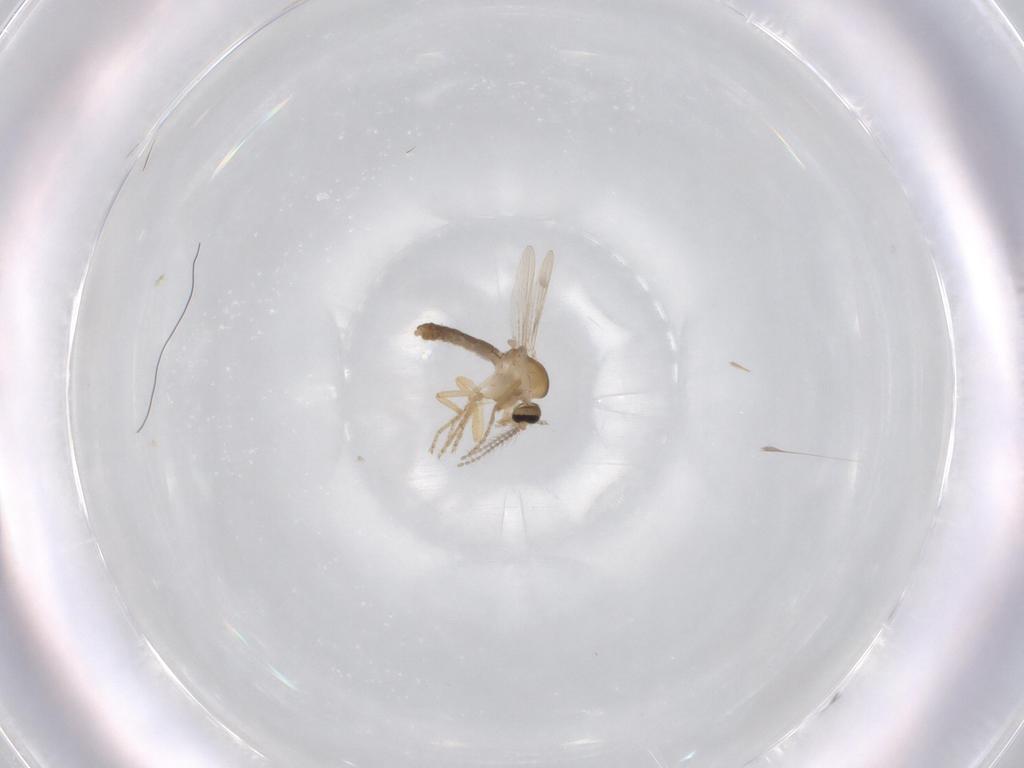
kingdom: Animalia
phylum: Arthropoda
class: Insecta
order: Diptera
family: Ceratopogonidae
